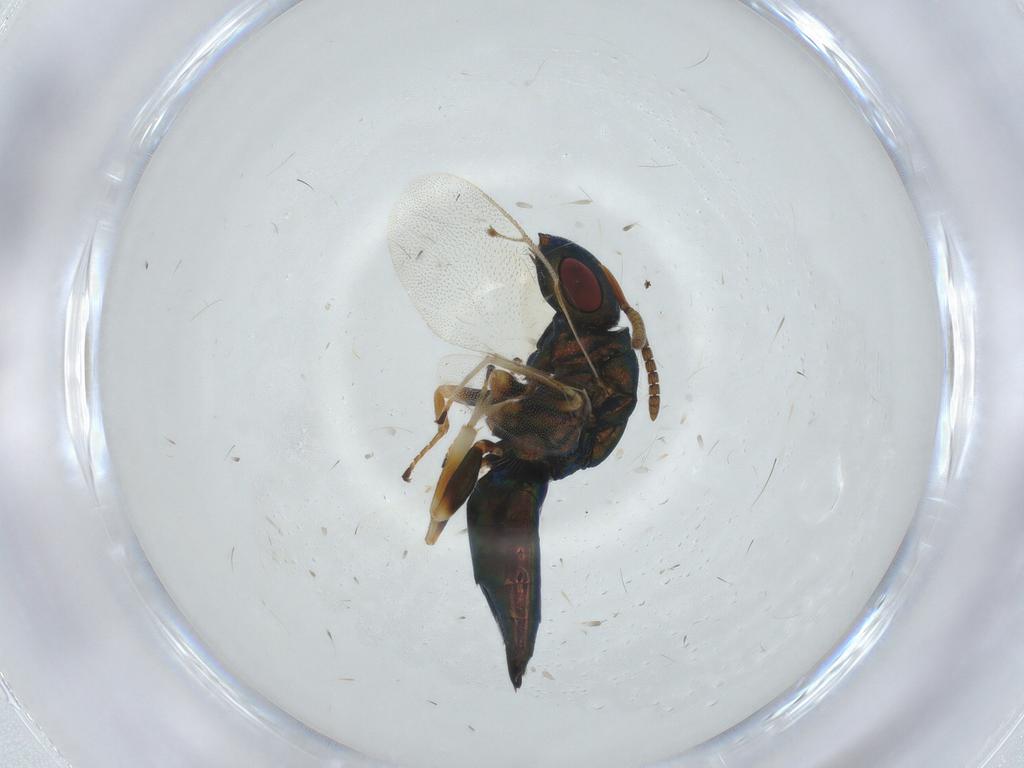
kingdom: Animalia
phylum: Arthropoda
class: Insecta
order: Hymenoptera
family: Pteromalidae
